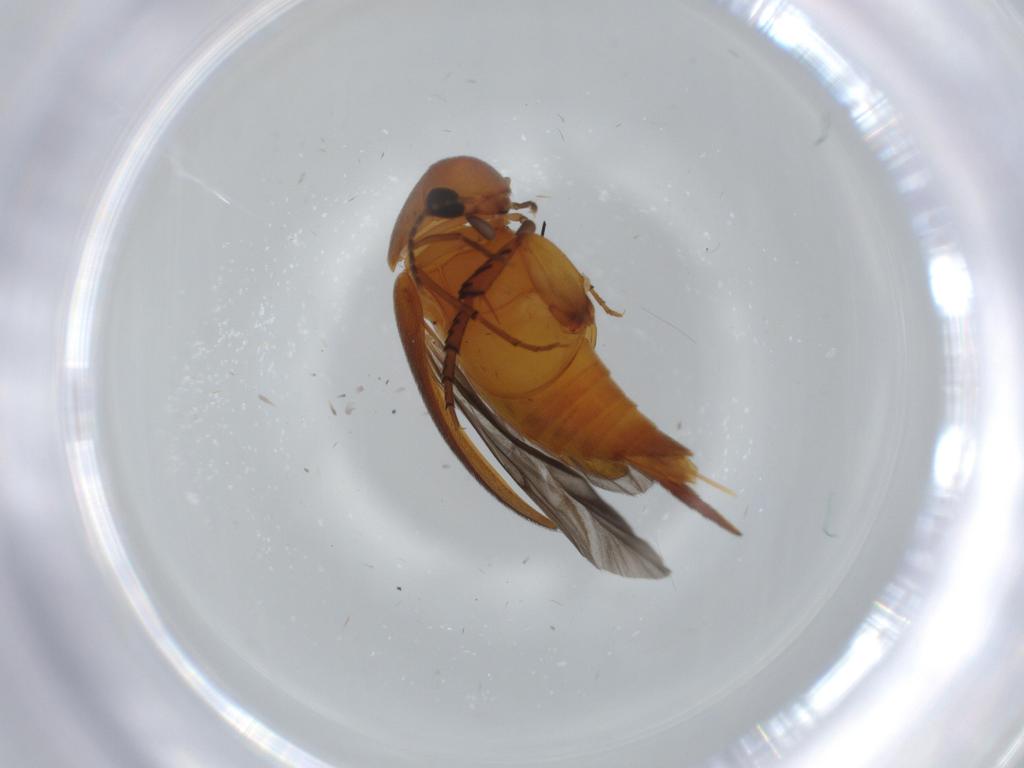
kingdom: Animalia
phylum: Arthropoda
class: Insecta
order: Coleoptera
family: Mordellidae
